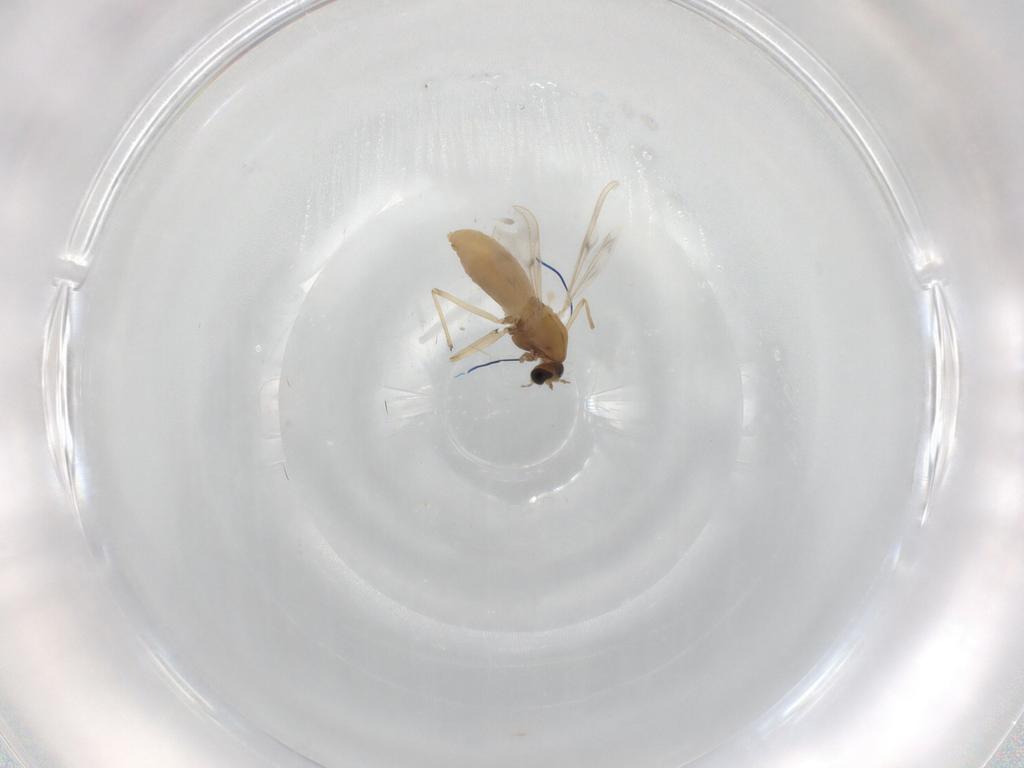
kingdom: Animalia
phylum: Arthropoda
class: Insecta
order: Diptera
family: Chironomidae
